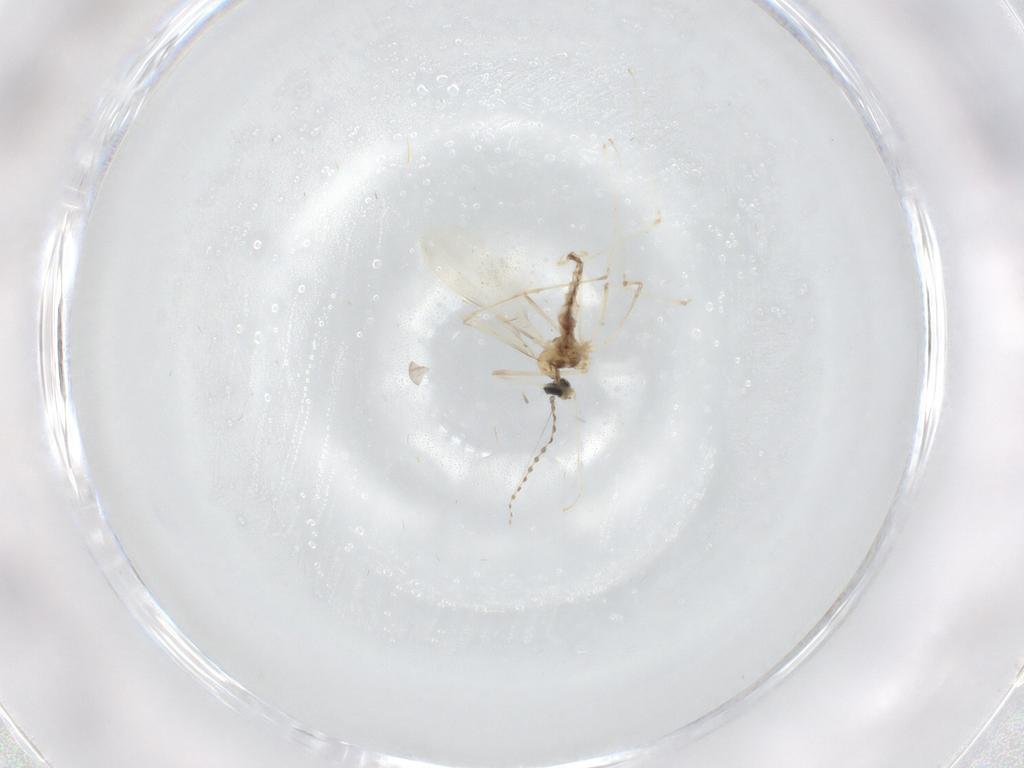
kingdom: Animalia
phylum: Arthropoda
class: Insecta
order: Diptera
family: Cecidomyiidae
